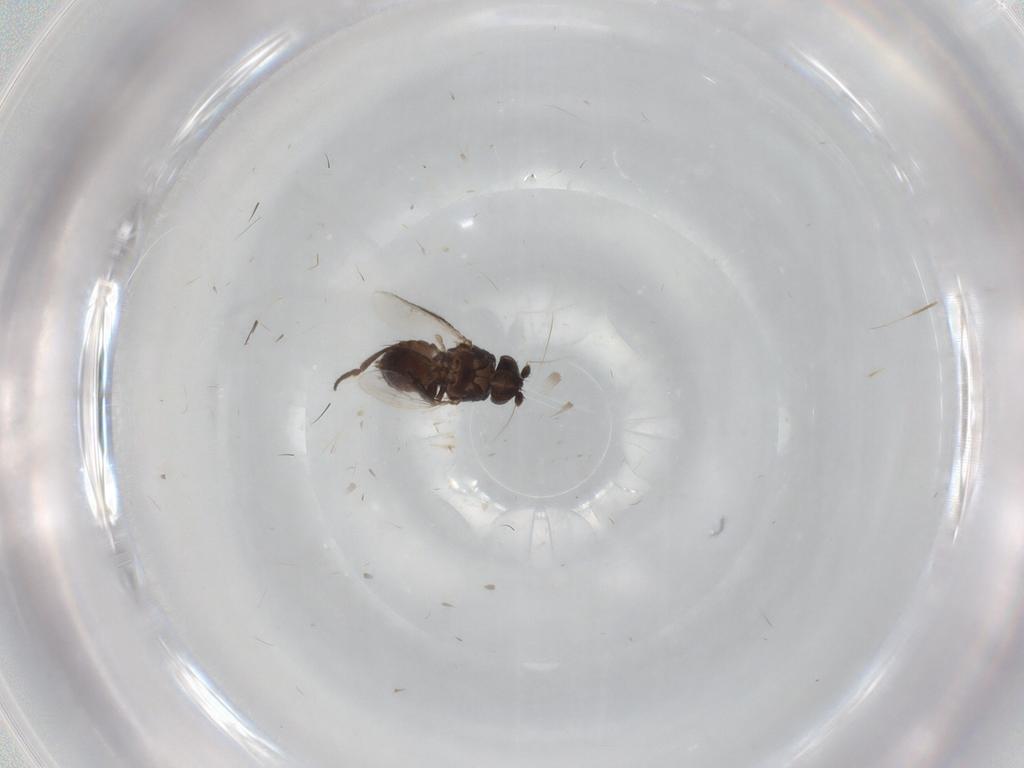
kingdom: Animalia
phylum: Arthropoda
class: Insecta
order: Diptera
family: Sphaeroceridae
